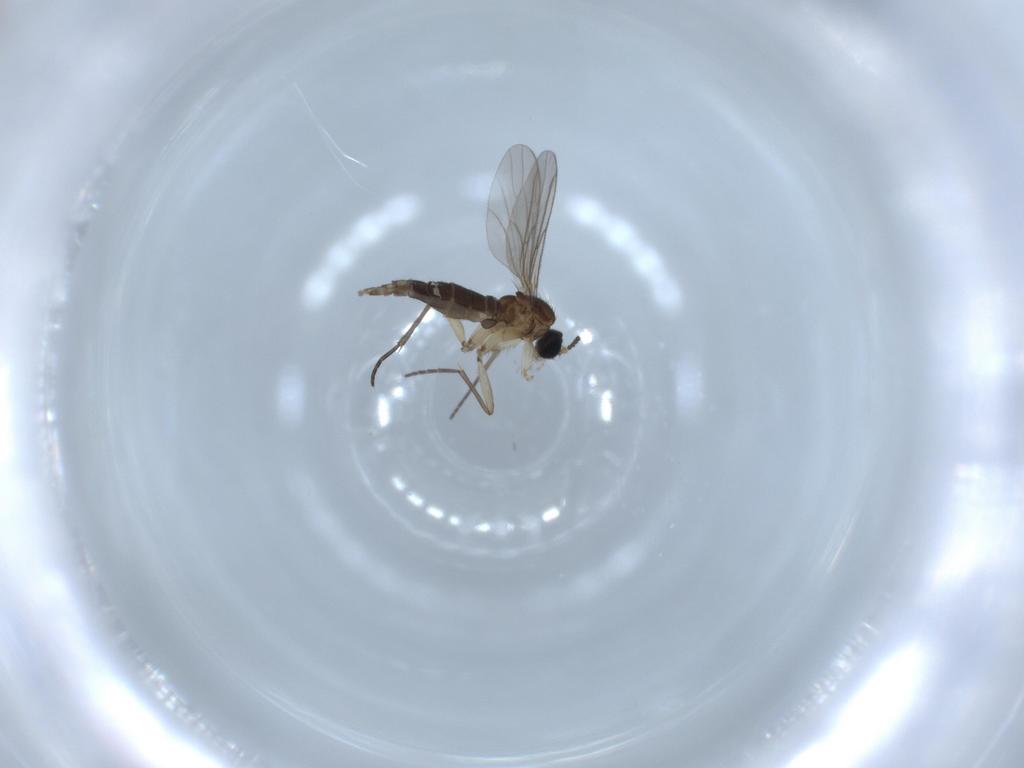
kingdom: Animalia
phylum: Arthropoda
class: Insecta
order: Diptera
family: Sciaridae
